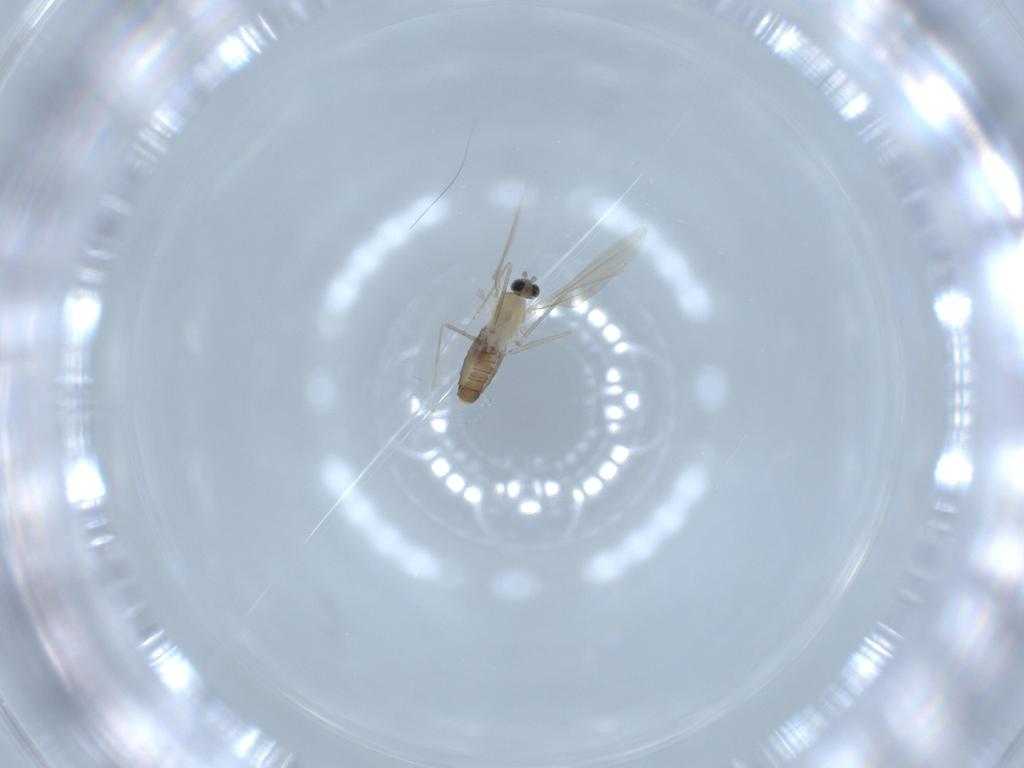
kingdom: Animalia
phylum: Arthropoda
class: Insecta
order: Diptera
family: Cecidomyiidae
